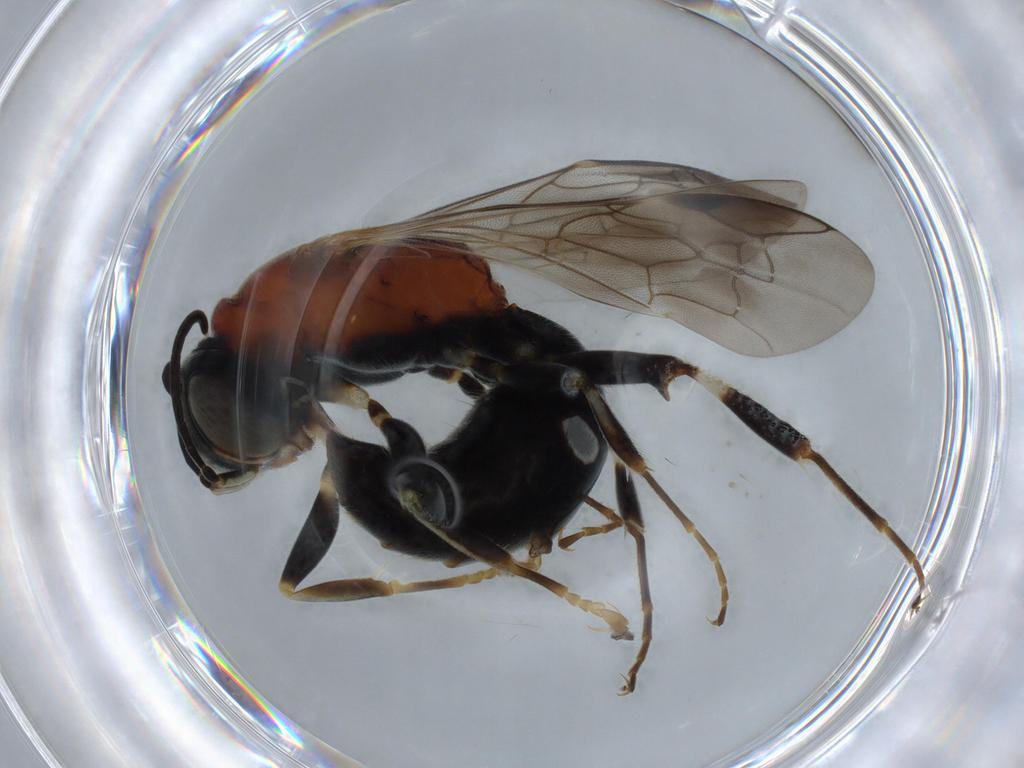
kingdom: Animalia
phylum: Arthropoda
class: Insecta
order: Hymenoptera
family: Bembicidae
